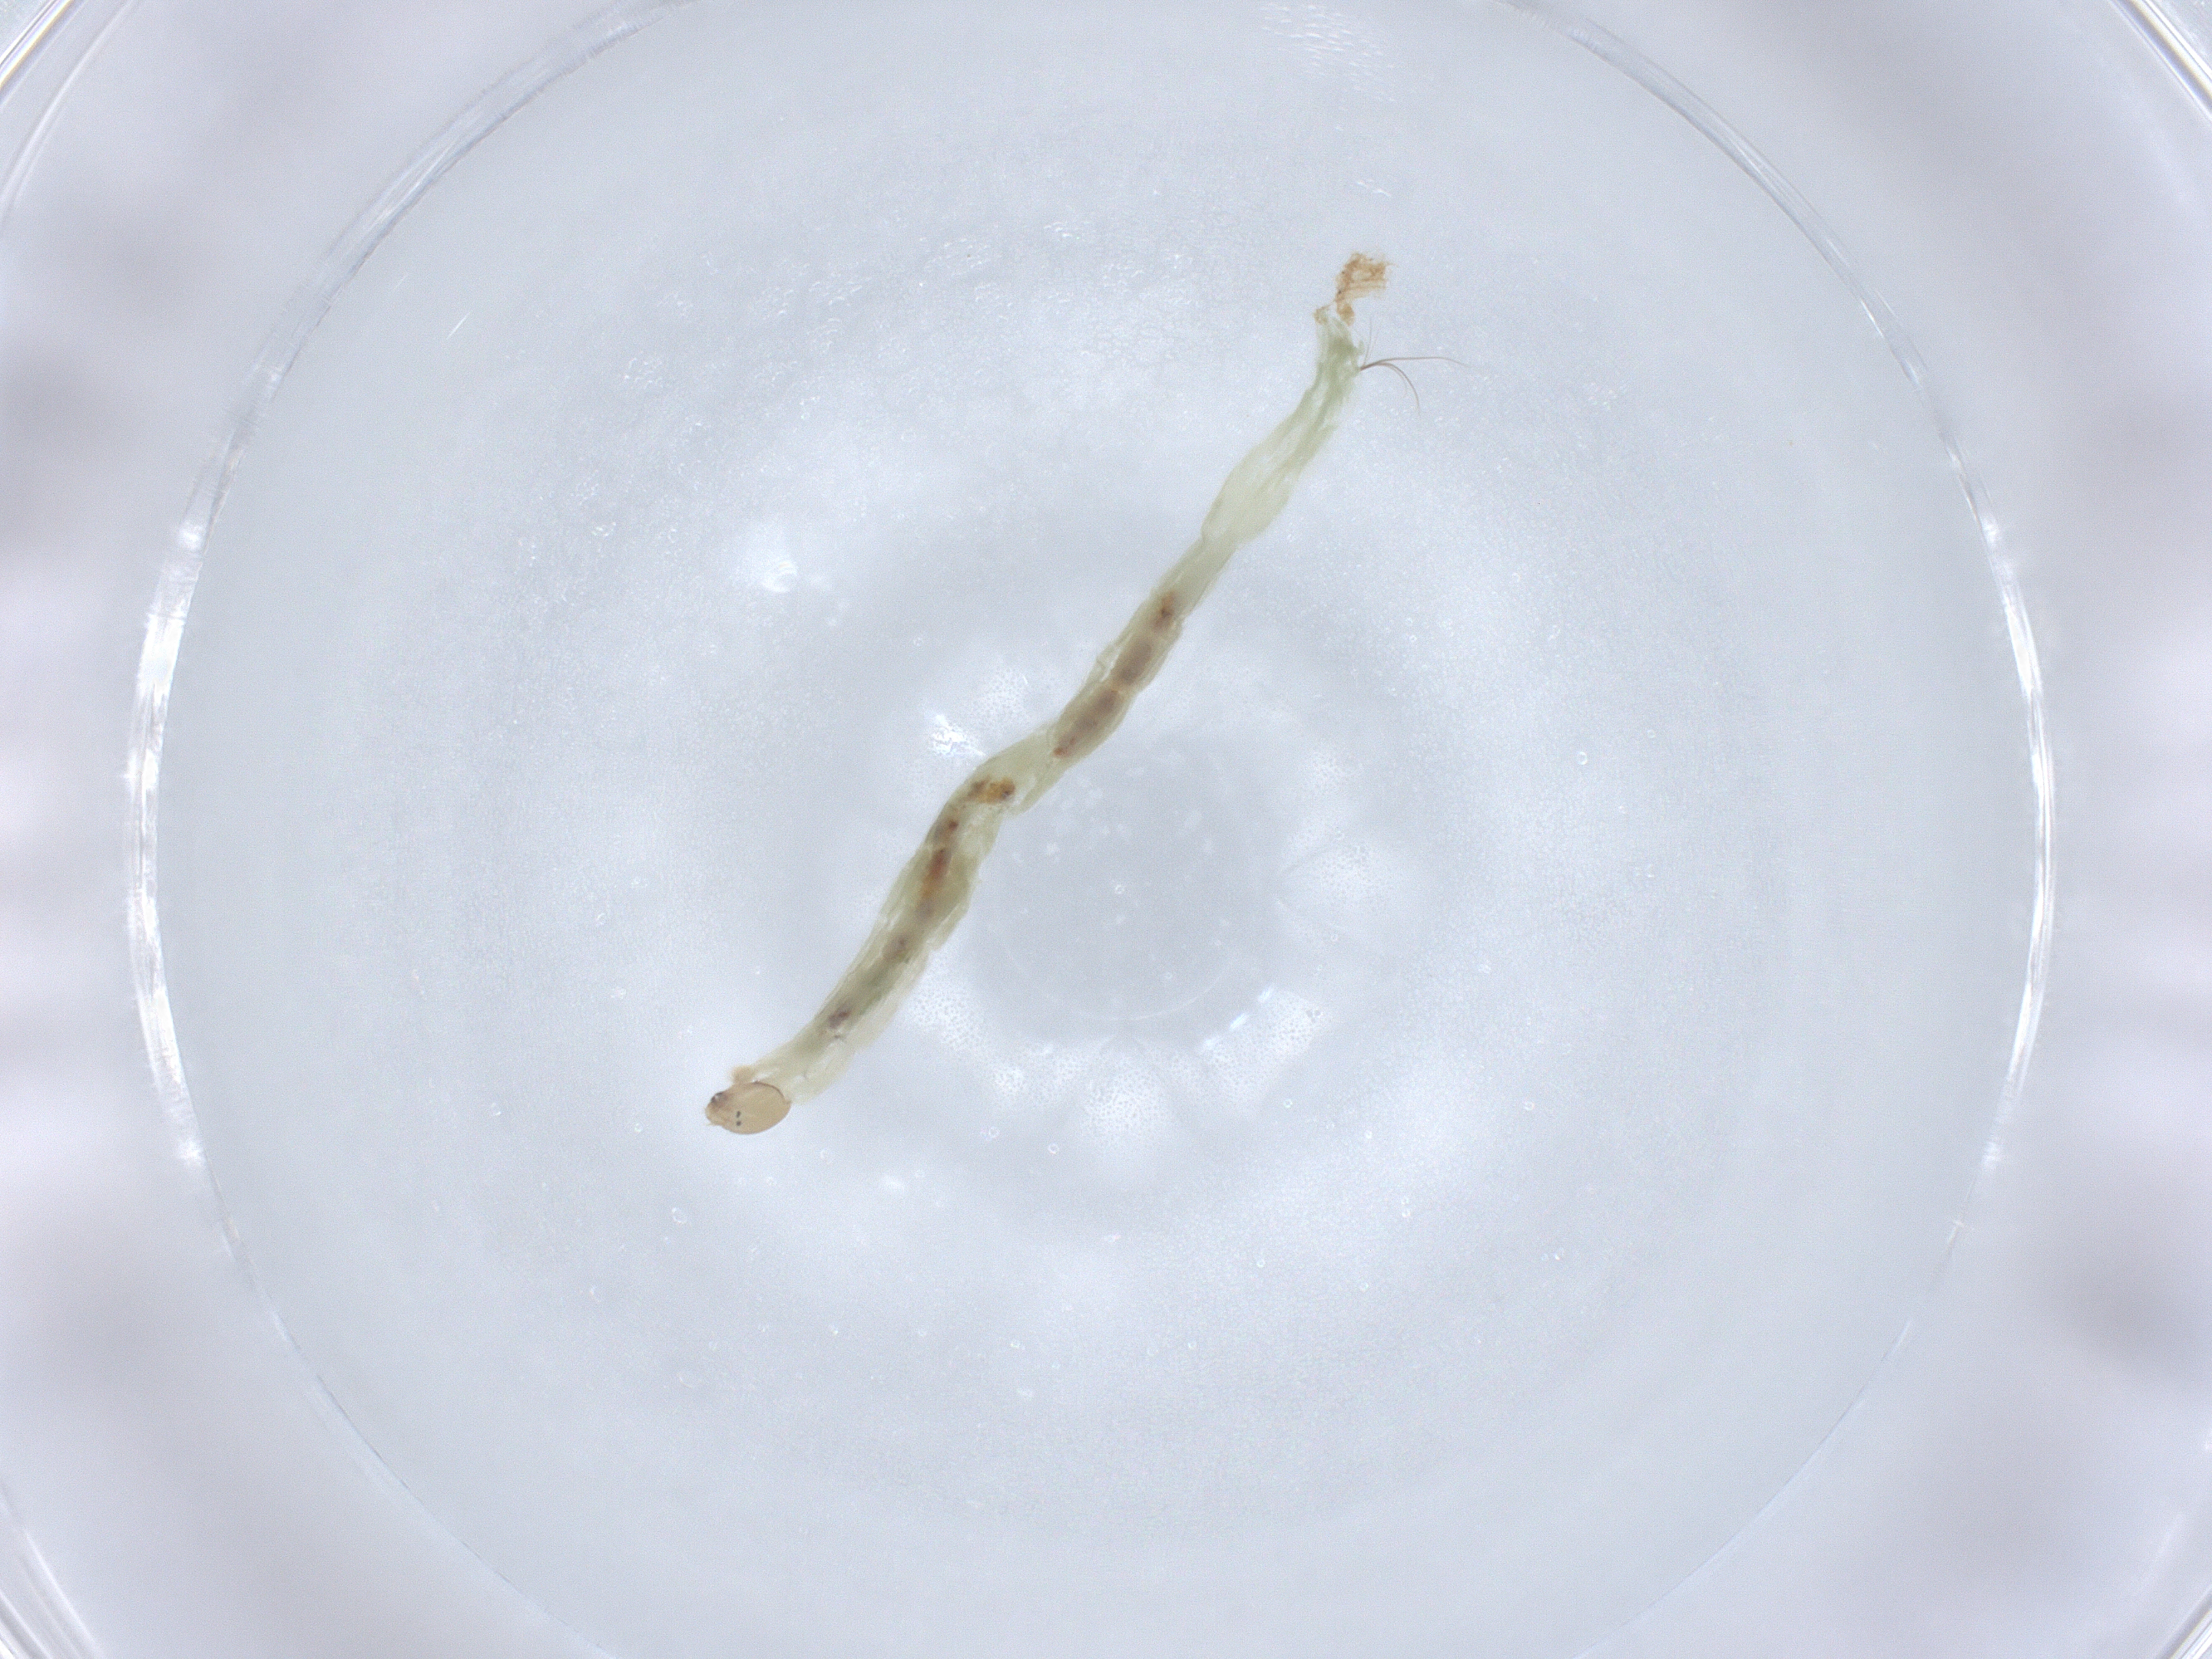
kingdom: Animalia
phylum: Arthropoda
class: Insecta
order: Diptera
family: Chironomidae
